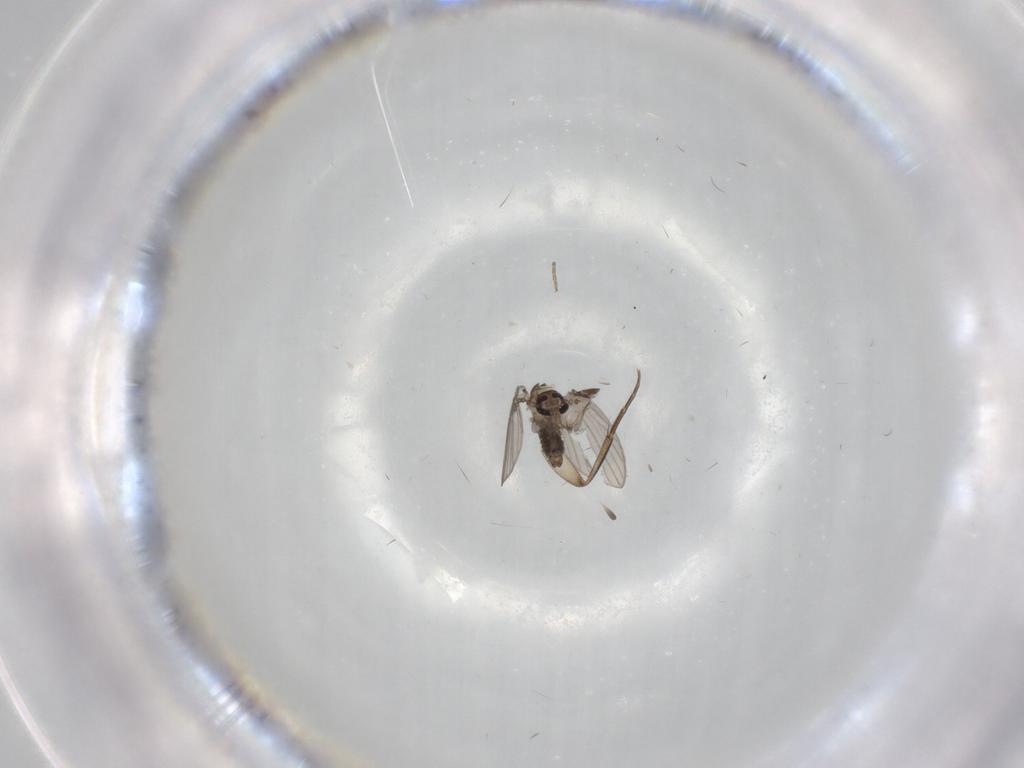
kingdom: Animalia
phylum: Arthropoda
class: Insecta
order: Diptera
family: Psychodidae
